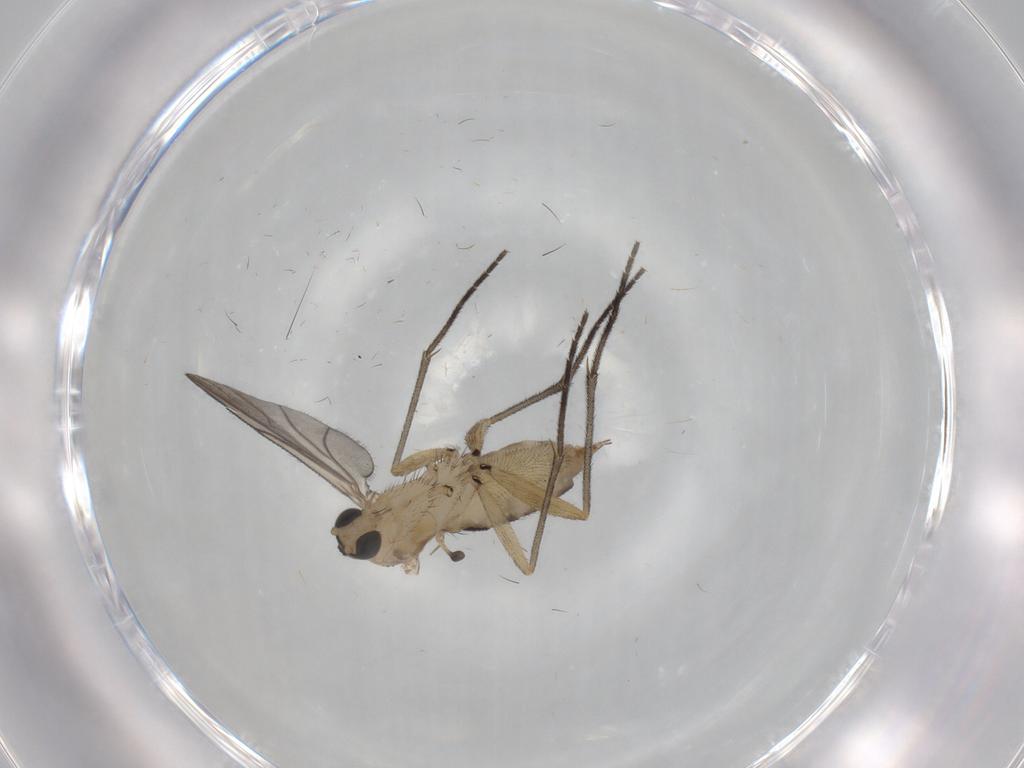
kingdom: Animalia
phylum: Arthropoda
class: Insecta
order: Diptera
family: Sciaridae
